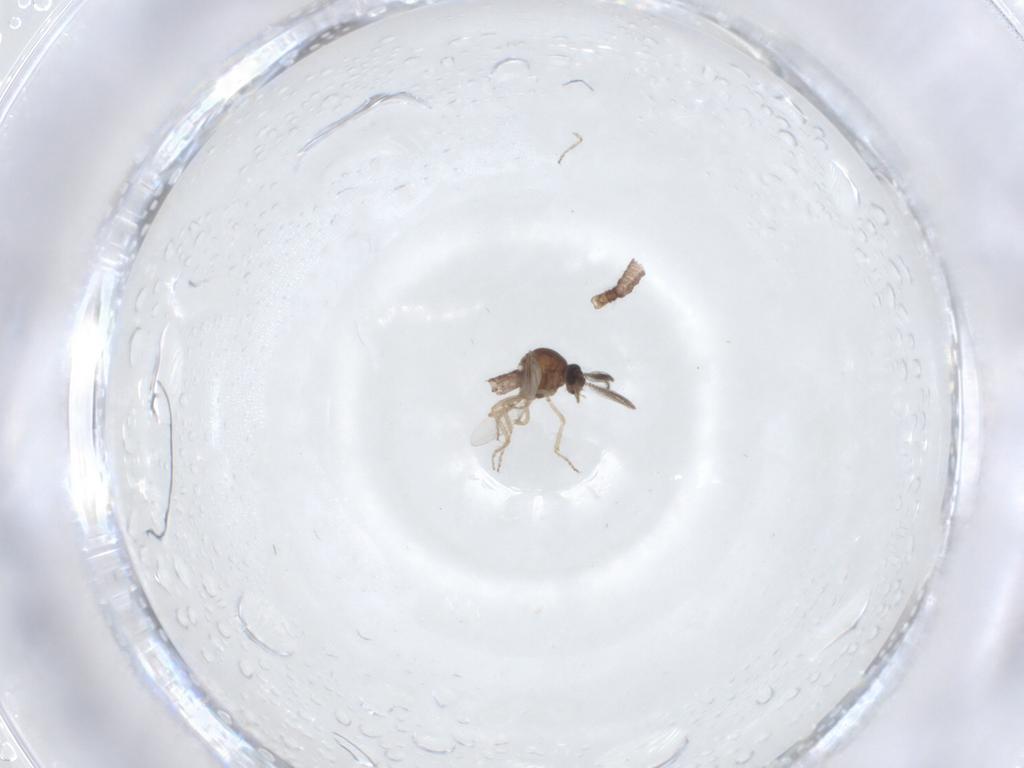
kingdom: Animalia
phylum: Arthropoda
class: Insecta
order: Diptera
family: Ceratopogonidae
